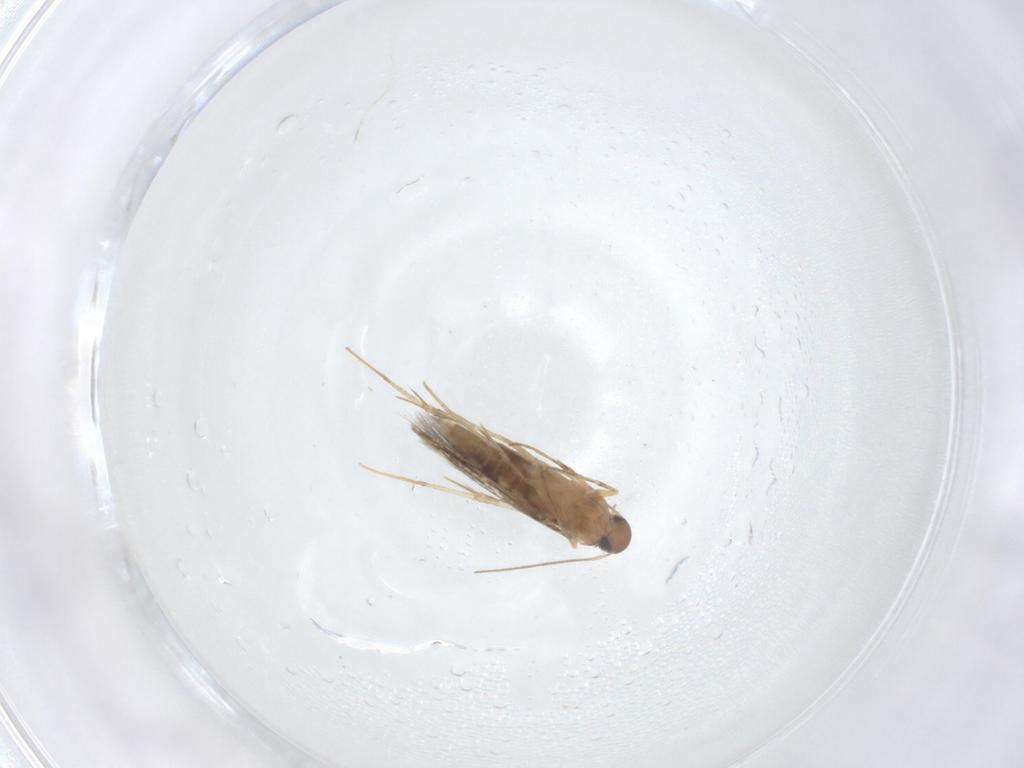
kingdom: Animalia
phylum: Arthropoda
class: Insecta
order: Lepidoptera
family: Pyralidae
